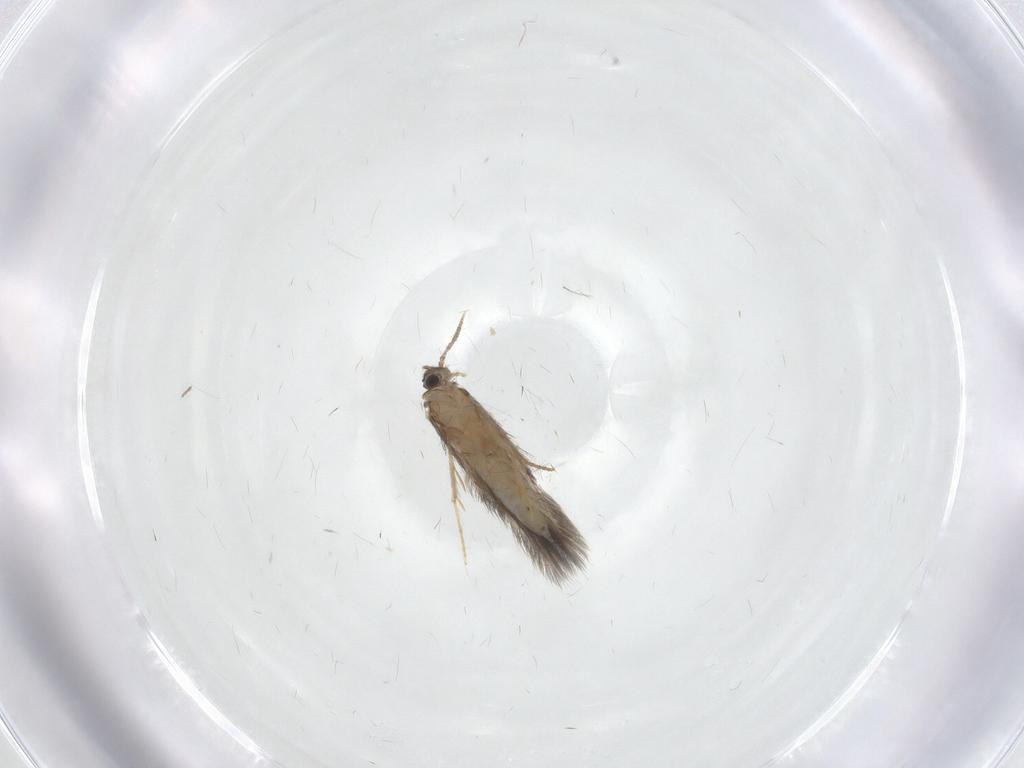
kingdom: Animalia
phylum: Arthropoda
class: Insecta
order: Trichoptera
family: Hydroptilidae
